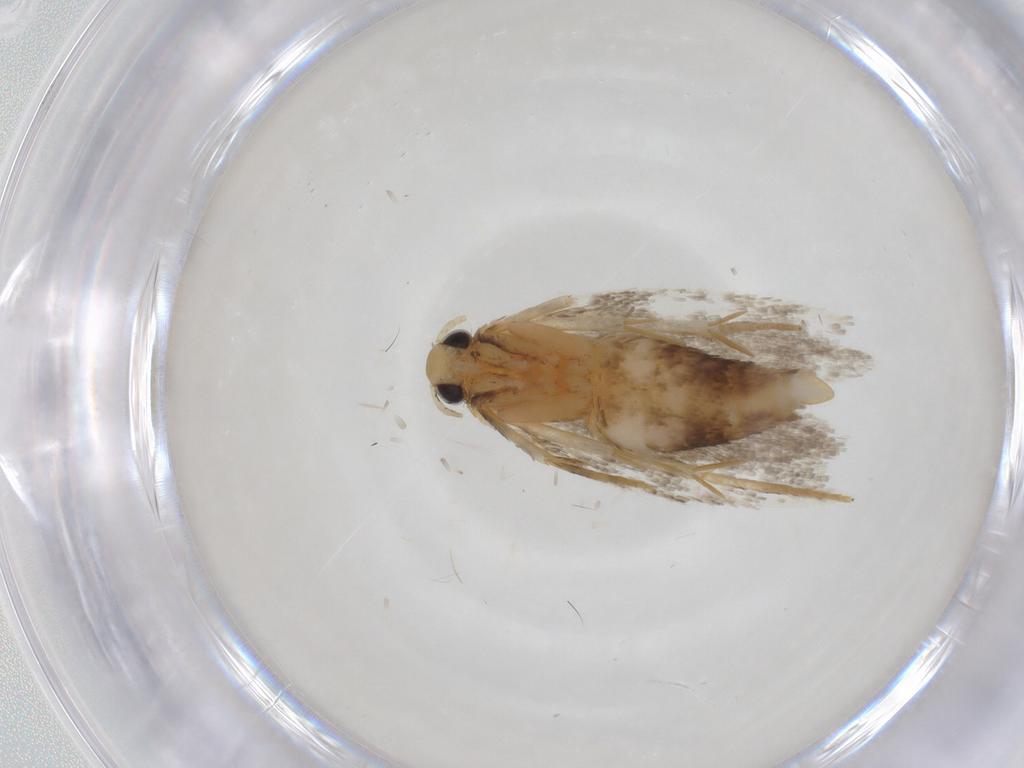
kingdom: Animalia
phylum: Arthropoda
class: Insecta
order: Lepidoptera
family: Autostichidae
